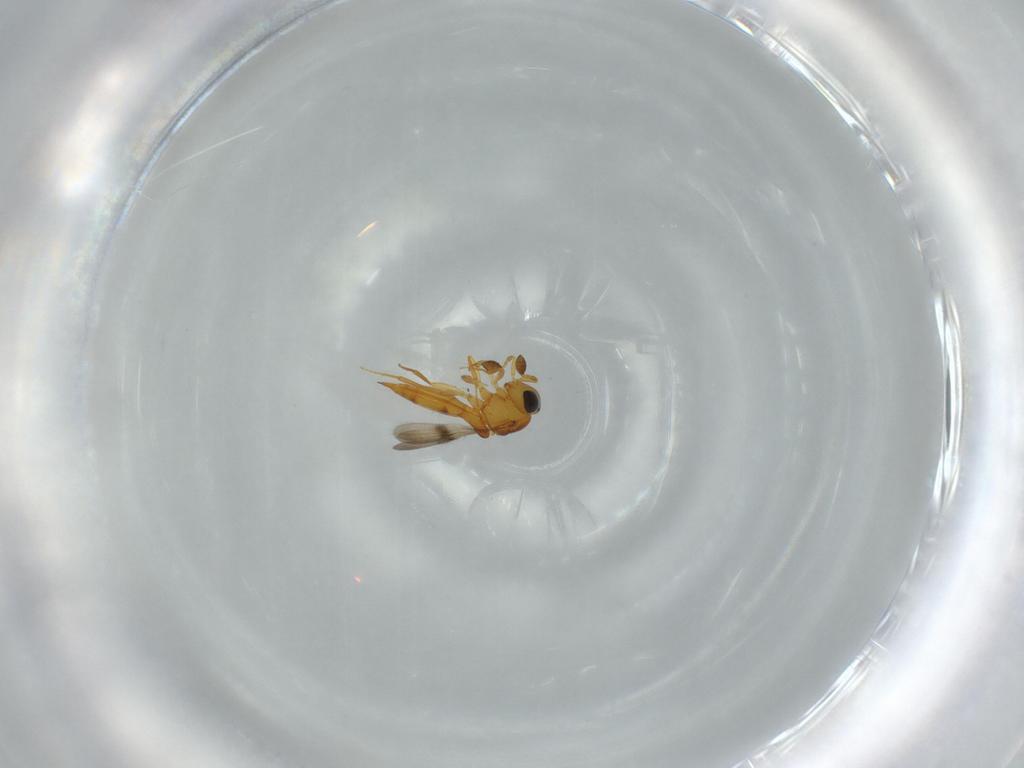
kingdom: Animalia
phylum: Arthropoda
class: Insecta
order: Hymenoptera
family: Scelionidae
